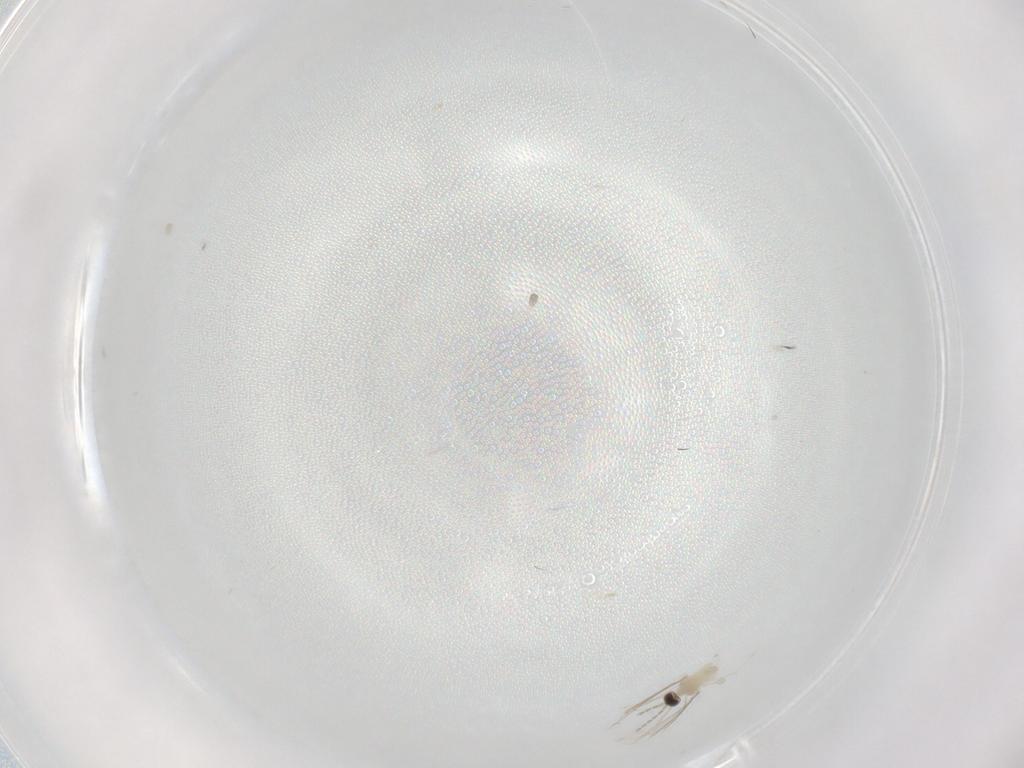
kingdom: Animalia
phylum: Arthropoda
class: Insecta
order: Diptera
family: Cecidomyiidae
